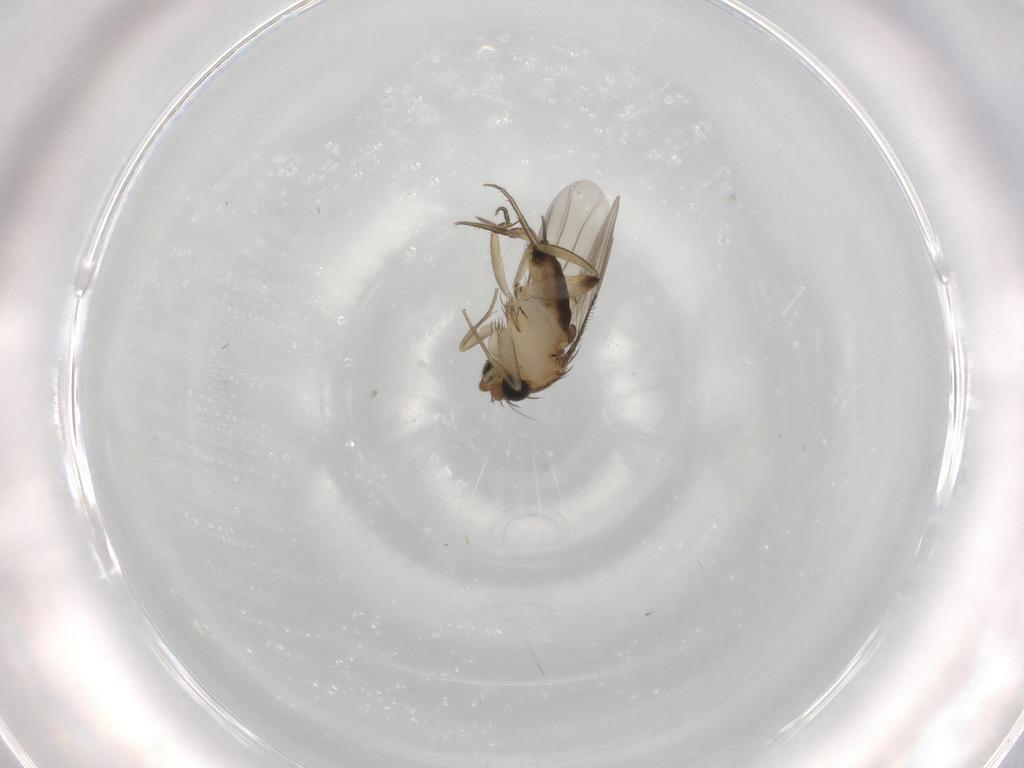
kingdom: Animalia
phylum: Arthropoda
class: Insecta
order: Diptera
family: Phoridae
